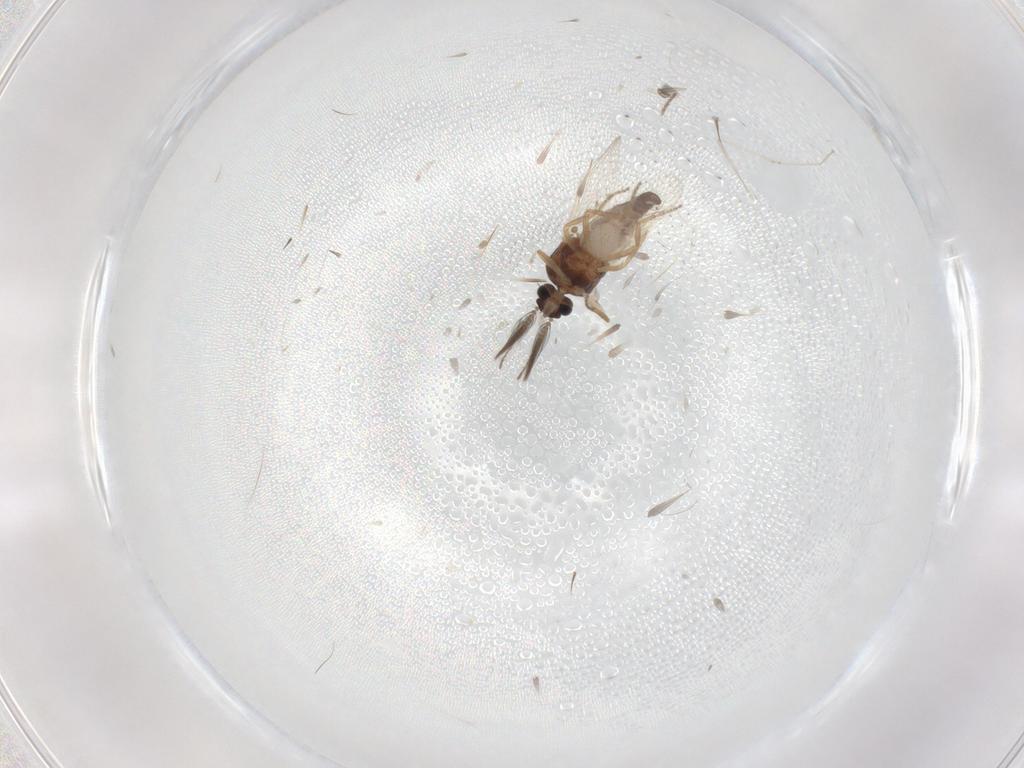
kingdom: Animalia
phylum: Arthropoda
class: Insecta
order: Diptera
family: Ceratopogonidae
